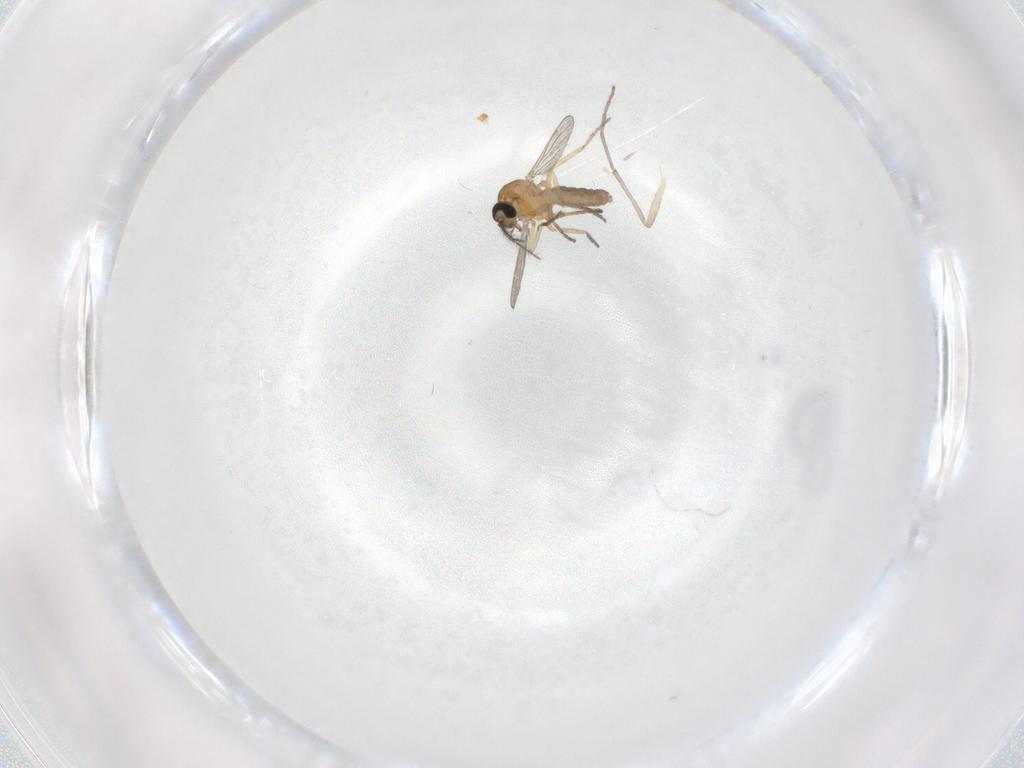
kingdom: Animalia
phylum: Arthropoda
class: Insecta
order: Diptera
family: Ceratopogonidae
